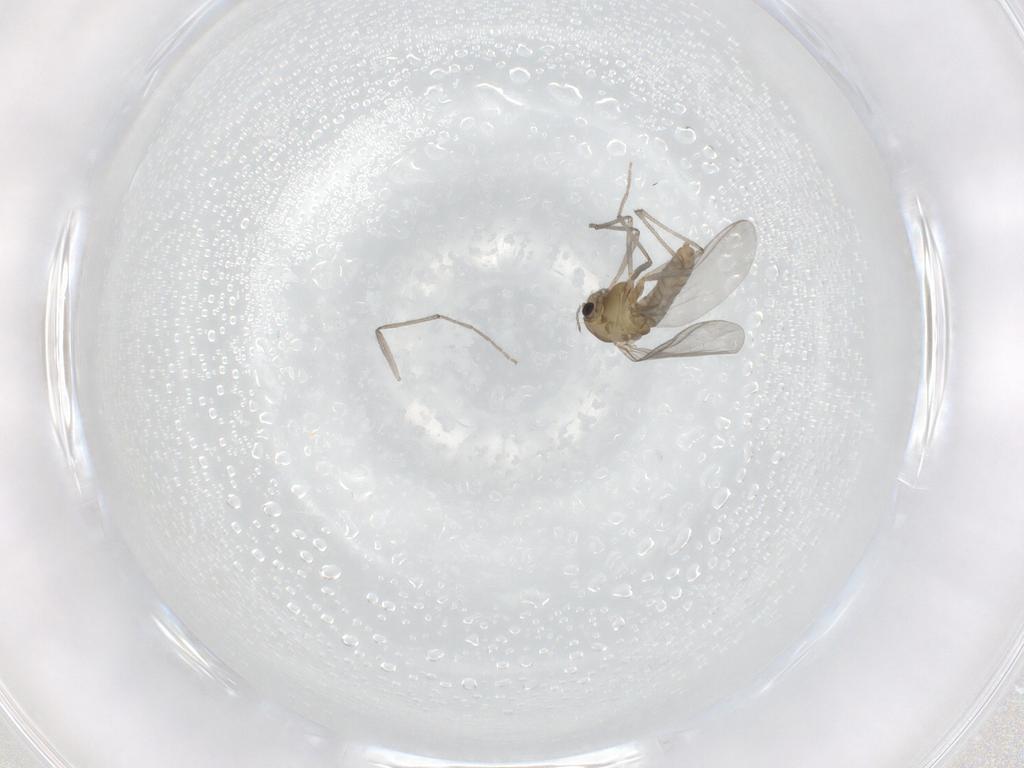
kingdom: Animalia
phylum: Arthropoda
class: Insecta
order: Diptera
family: Chironomidae
